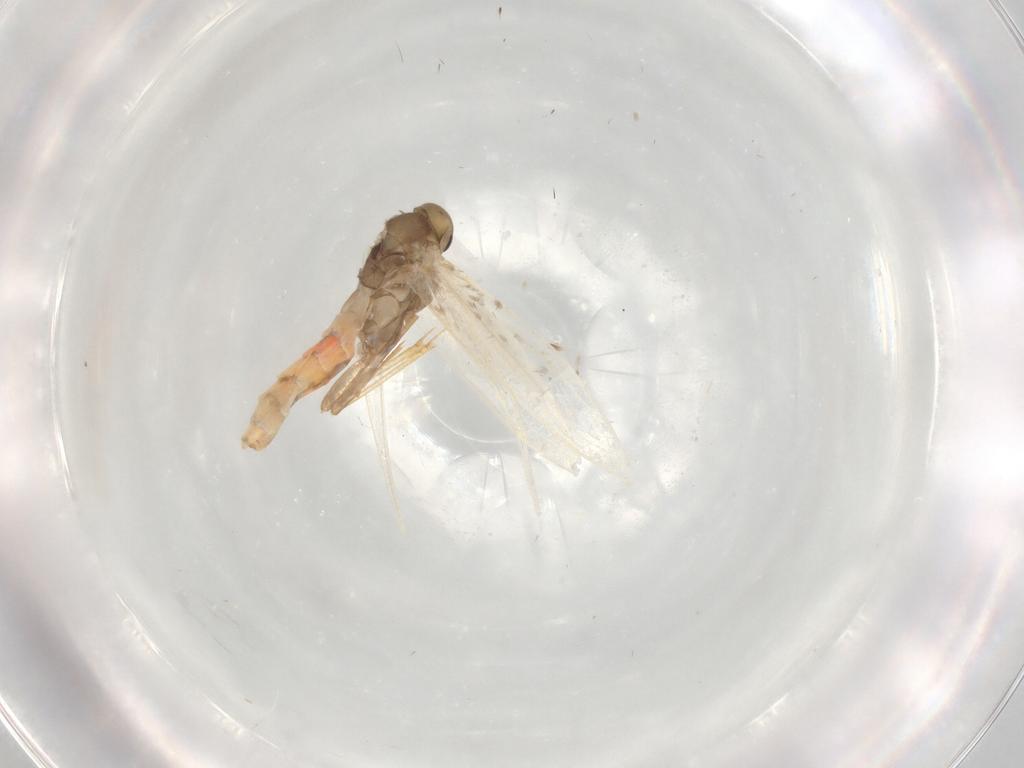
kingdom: Animalia
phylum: Arthropoda
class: Insecta
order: Lepidoptera
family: Gracillariidae
